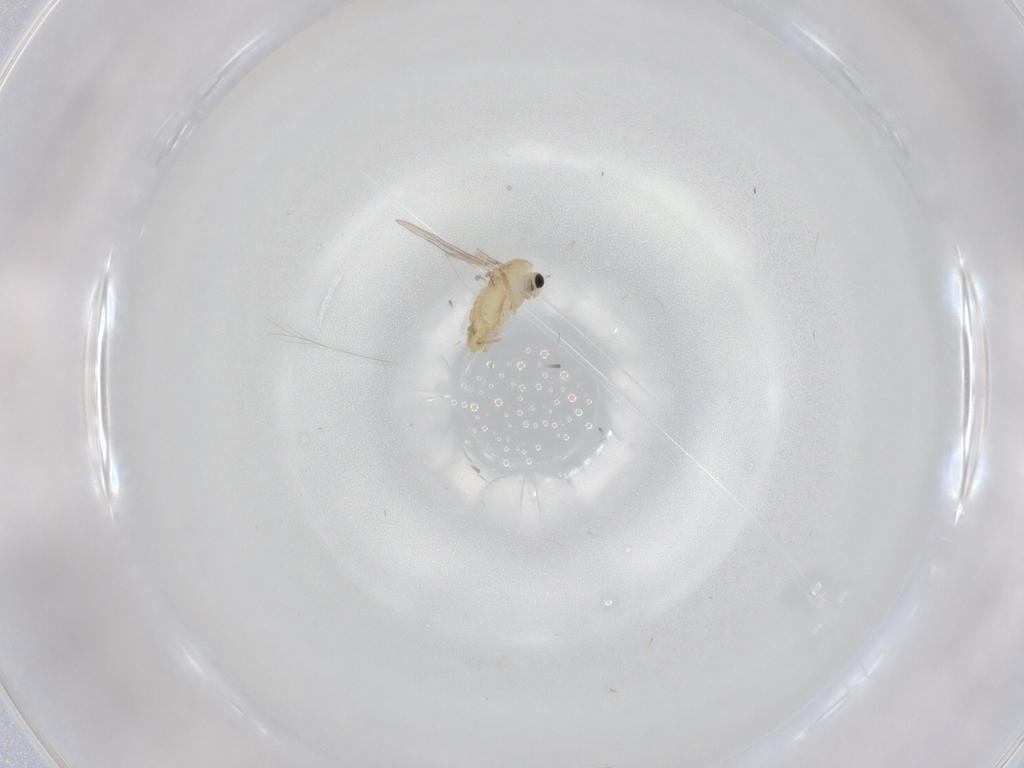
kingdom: Animalia
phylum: Arthropoda
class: Insecta
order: Diptera
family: Chironomidae
